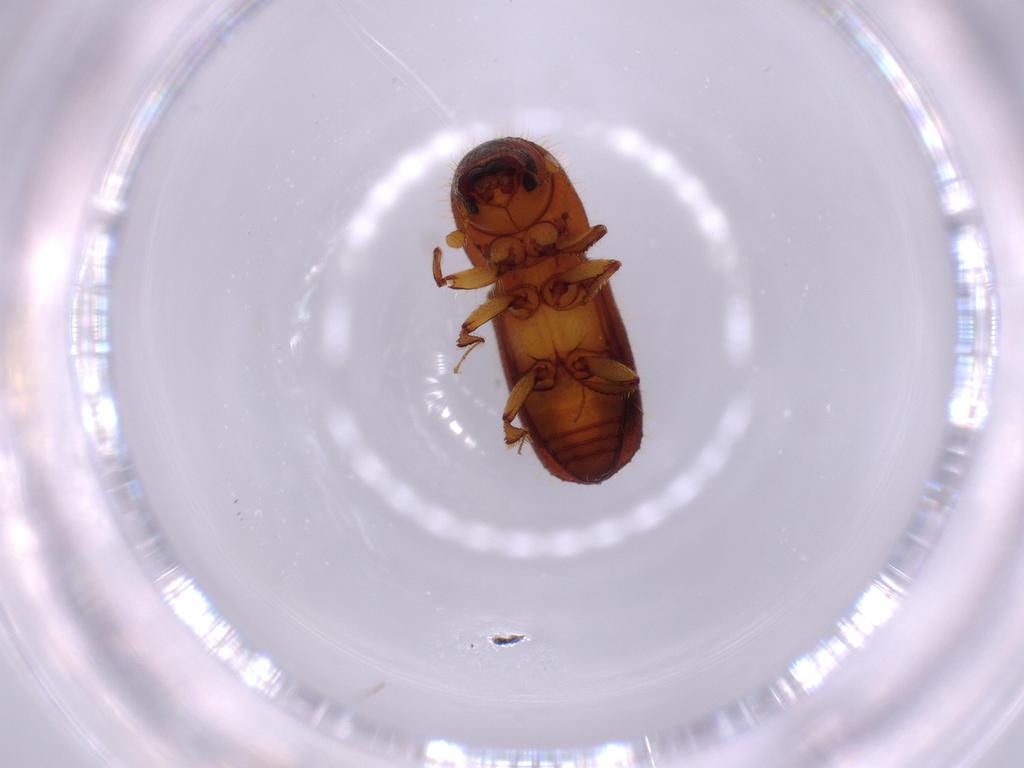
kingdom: Animalia
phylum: Arthropoda
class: Insecta
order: Coleoptera
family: Curculionidae
